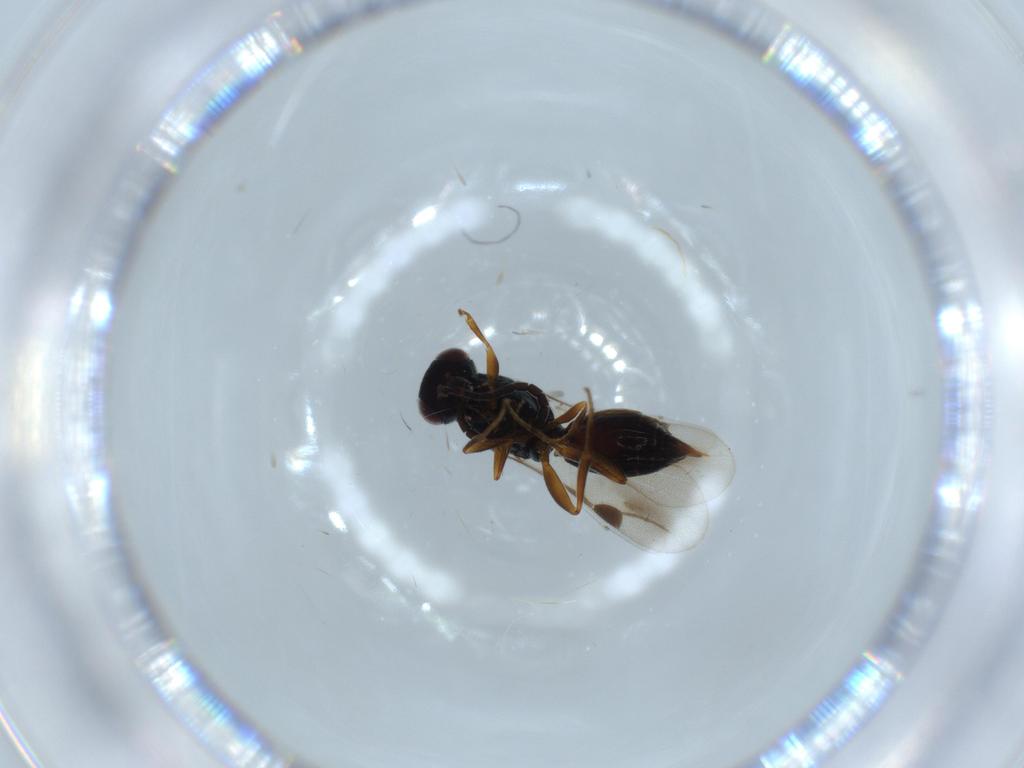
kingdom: Animalia
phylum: Arthropoda
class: Insecta
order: Hymenoptera
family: Megaspilidae
